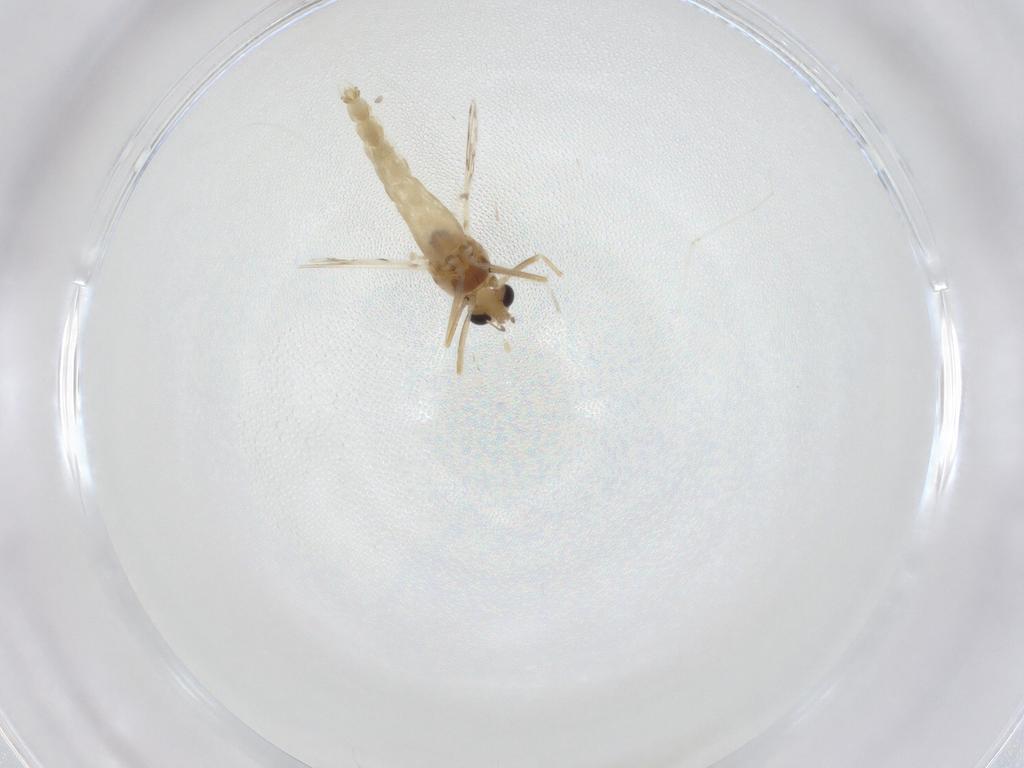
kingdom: Animalia
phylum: Arthropoda
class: Insecta
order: Diptera
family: Chironomidae
